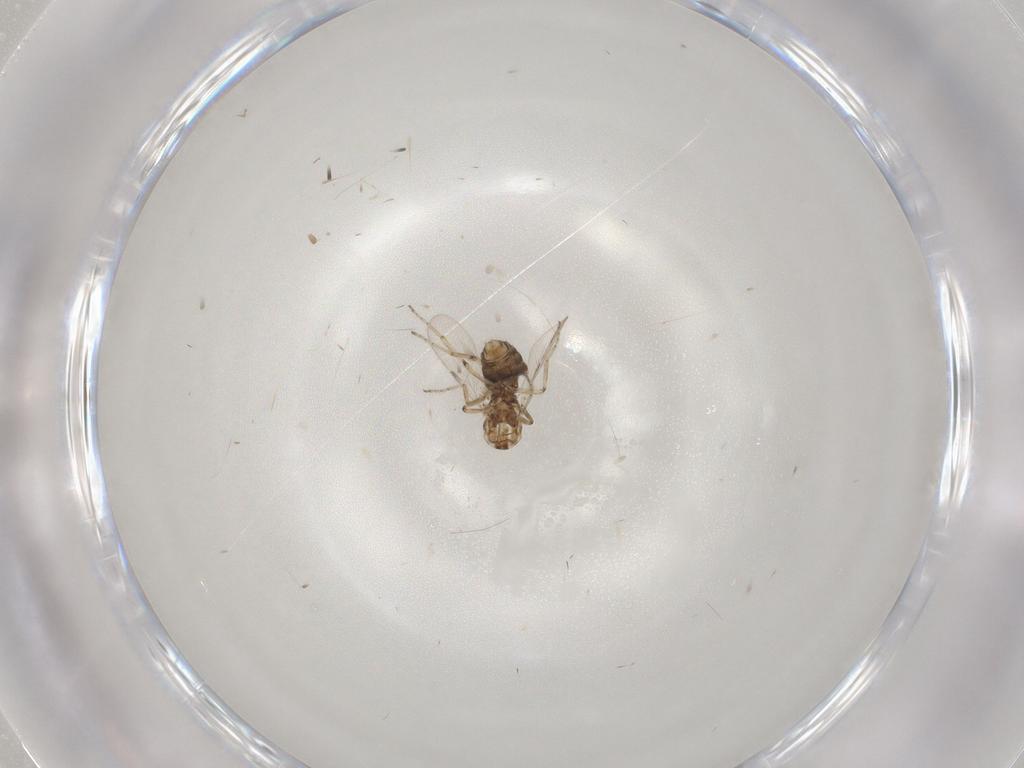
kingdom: Animalia
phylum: Arthropoda
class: Insecta
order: Diptera
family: Ceratopogonidae
